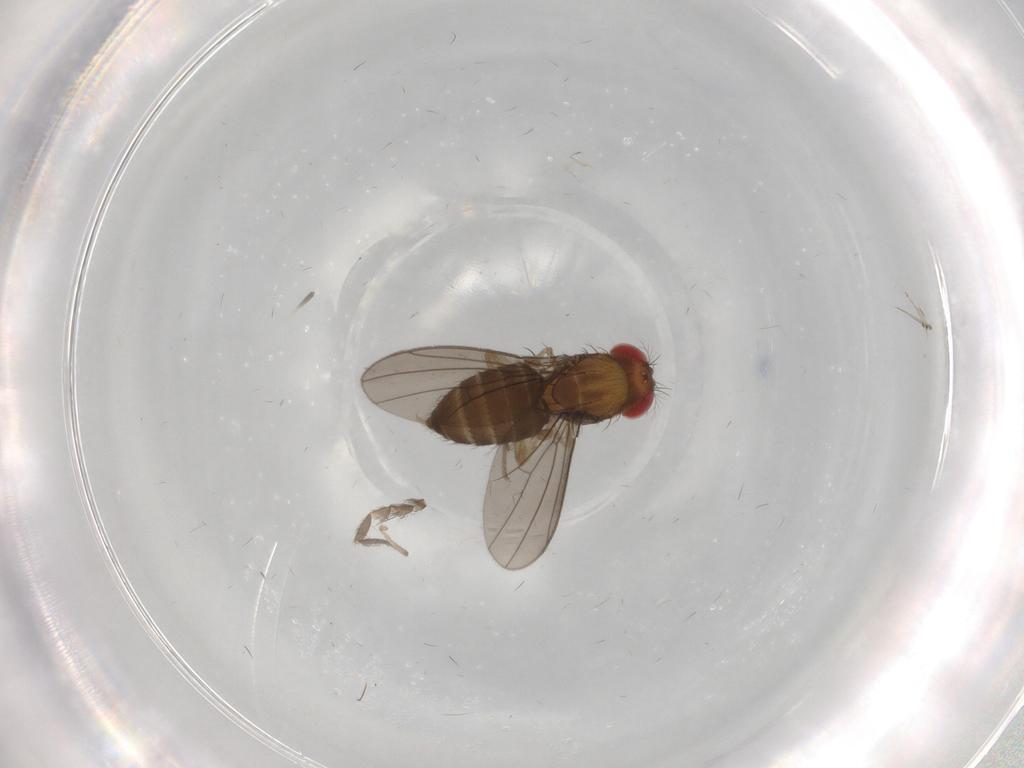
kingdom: Animalia
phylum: Arthropoda
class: Insecta
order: Diptera
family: Drosophilidae
